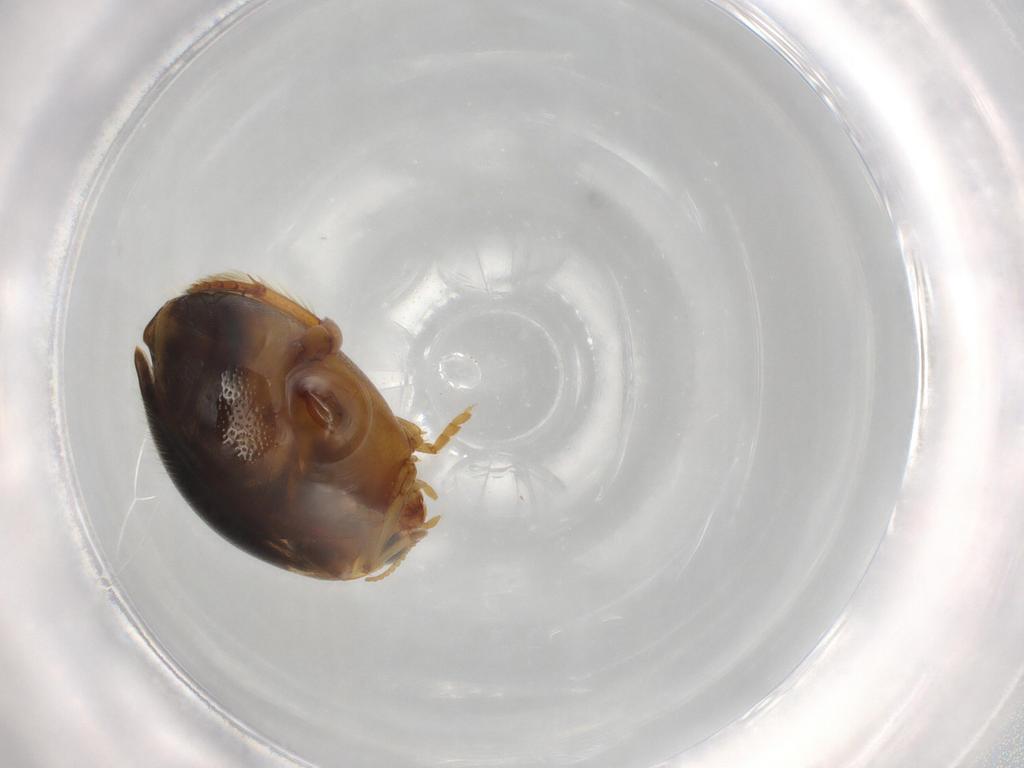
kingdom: Animalia
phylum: Arthropoda
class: Insecta
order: Coleoptera
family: Dytiscidae
